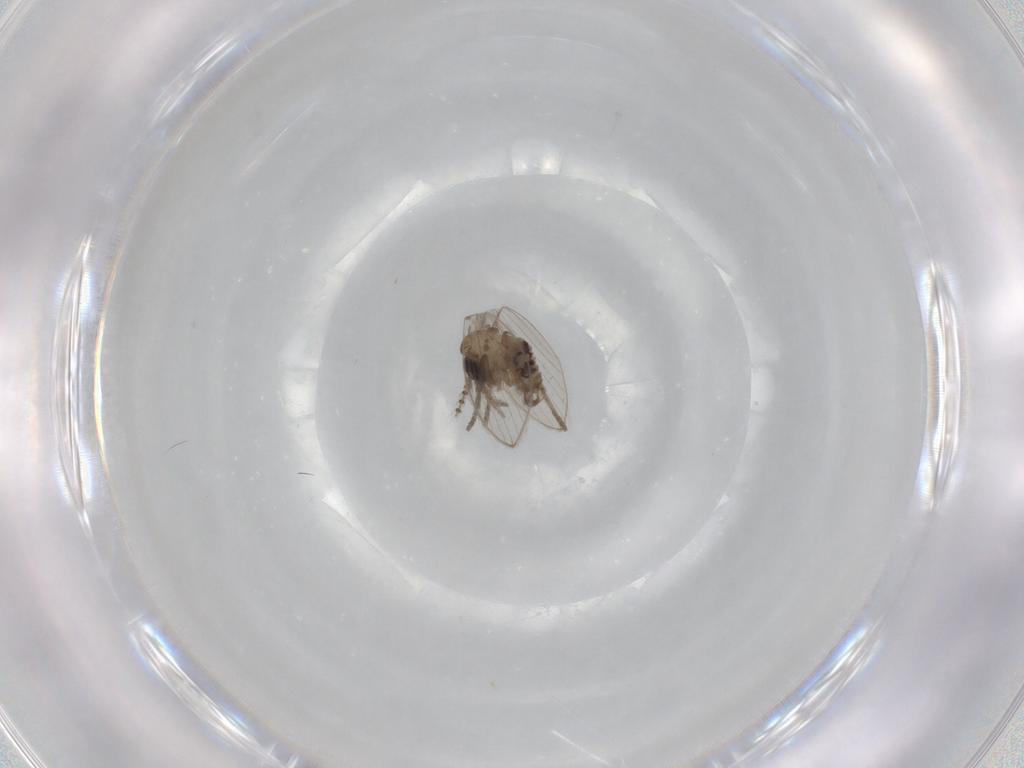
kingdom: Animalia
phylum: Arthropoda
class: Insecta
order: Diptera
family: Psychodidae
